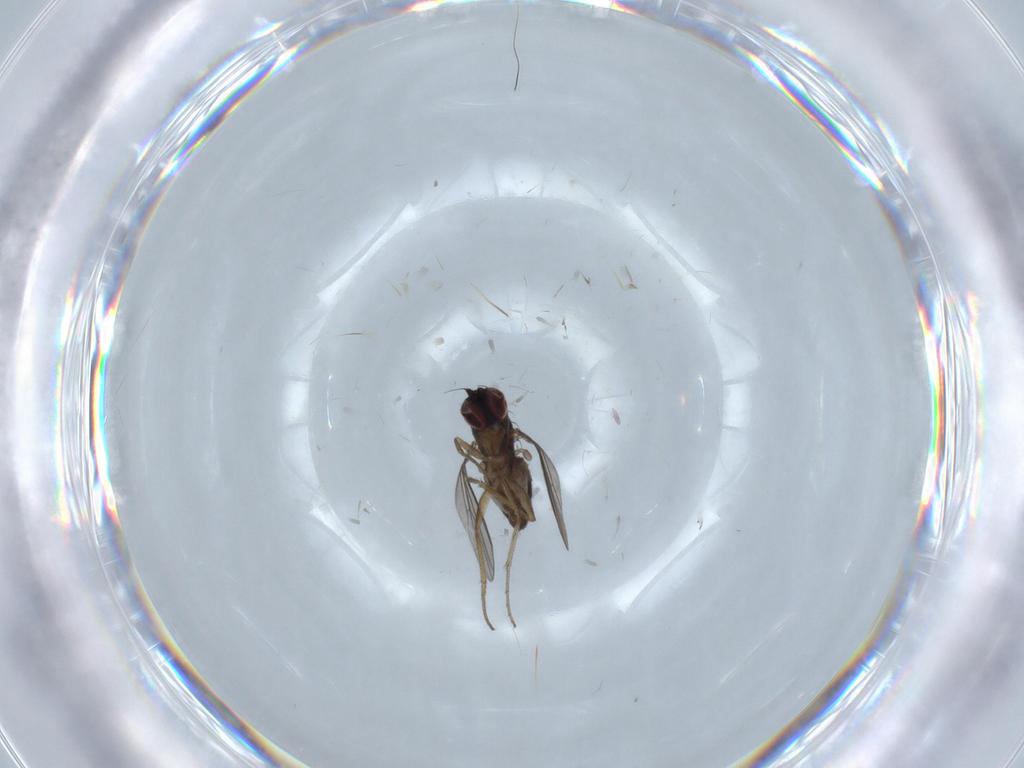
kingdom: Animalia
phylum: Arthropoda
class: Insecta
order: Diptera
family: Dolichopodidae
